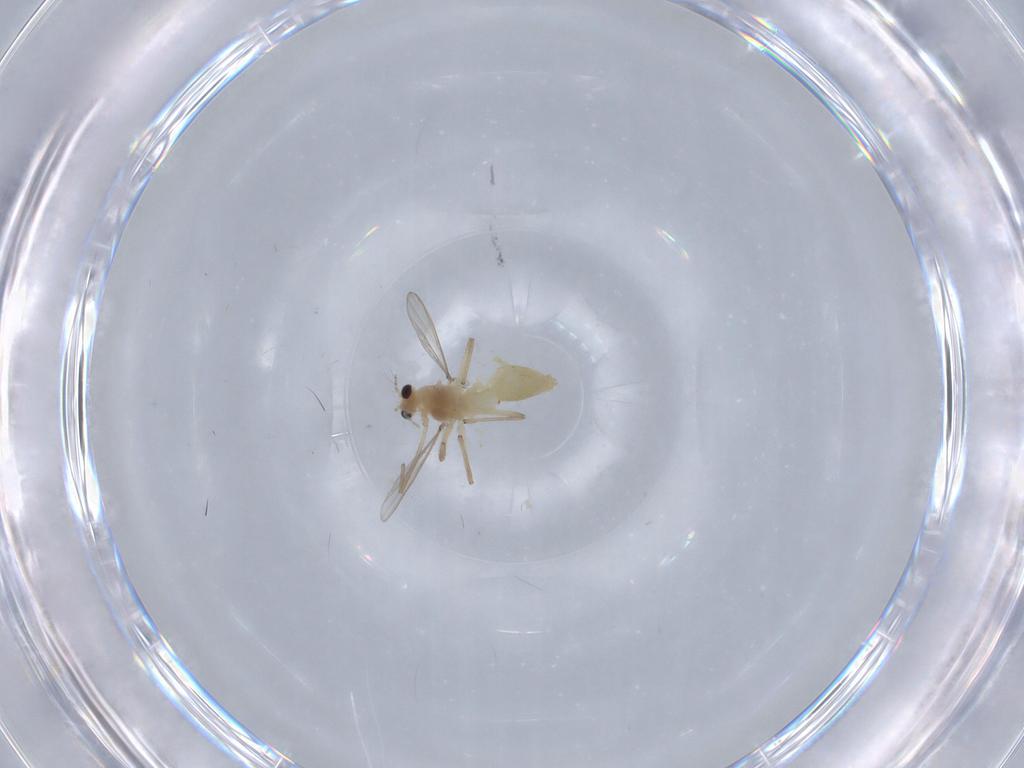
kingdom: Animalia
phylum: Arthropoda
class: Insecta
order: Diptera
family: Chironomidae
